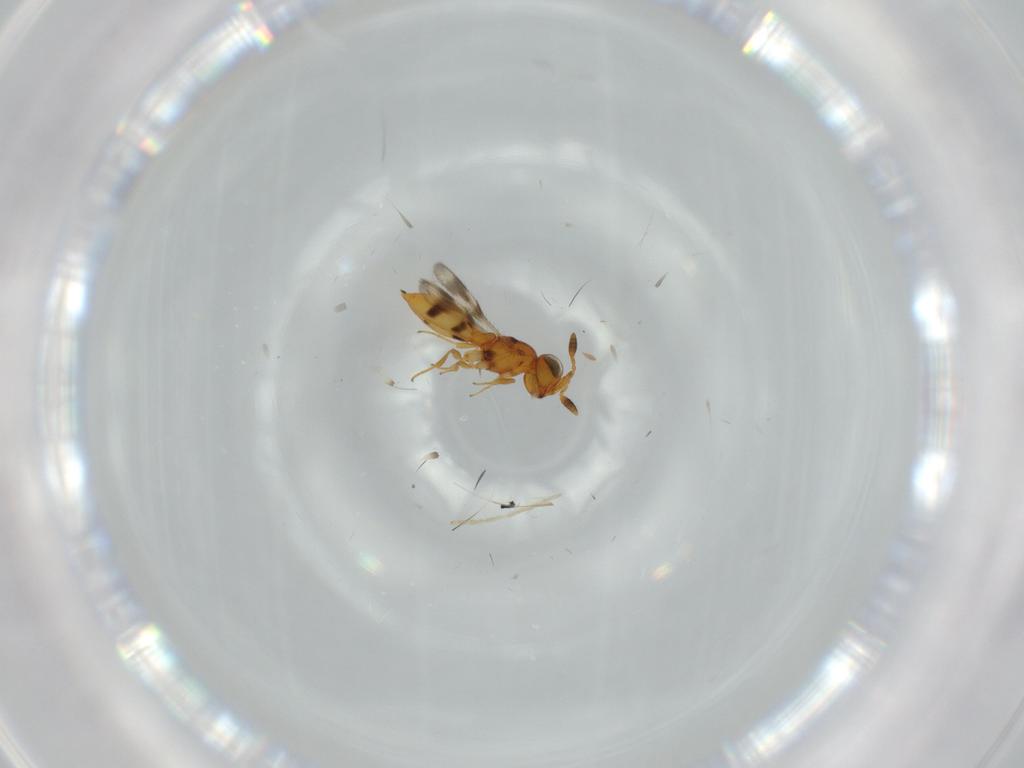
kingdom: Animalia
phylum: Arthropoda
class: Insecta
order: Hymenoptera
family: Scelionidae
